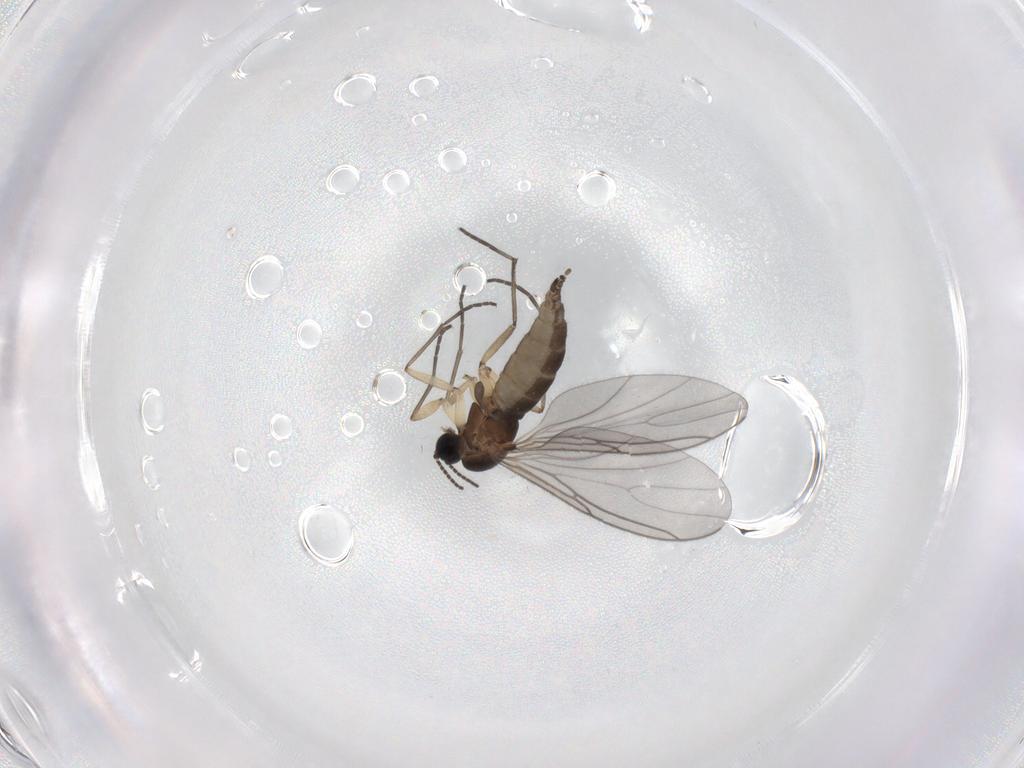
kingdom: Animalia
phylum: Arthropoda
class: Insecta
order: Diptera
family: Sciaridae
